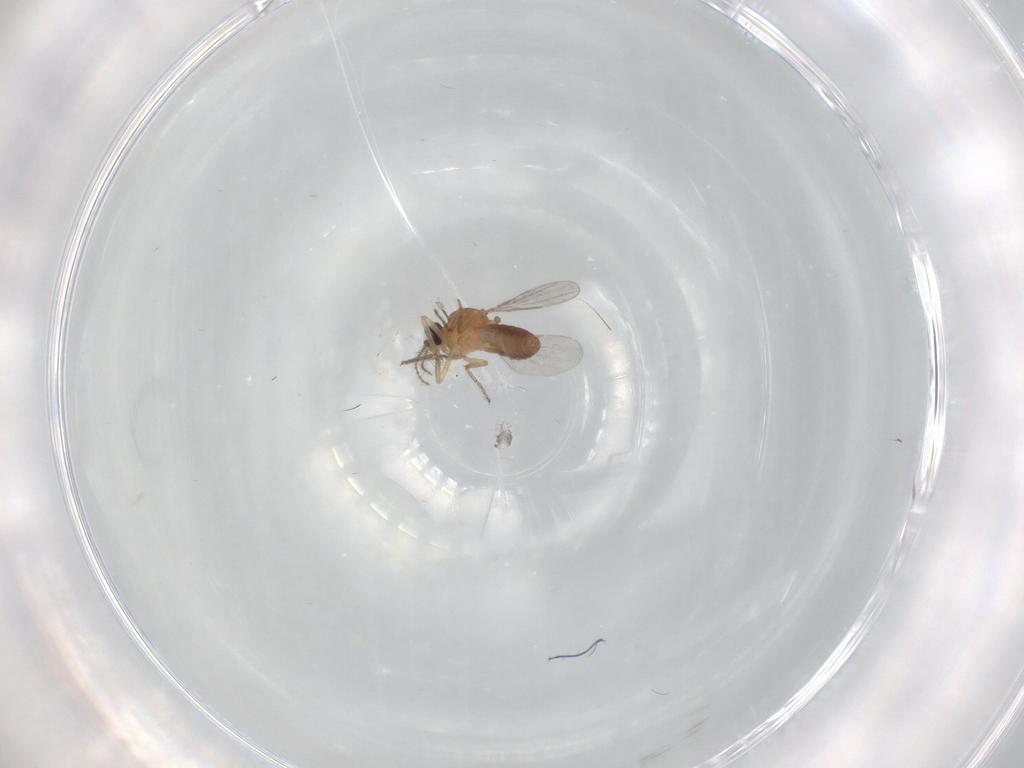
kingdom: Animalia
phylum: Arthropoda
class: Insecta
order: Diptera
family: Ceratopogonidae
